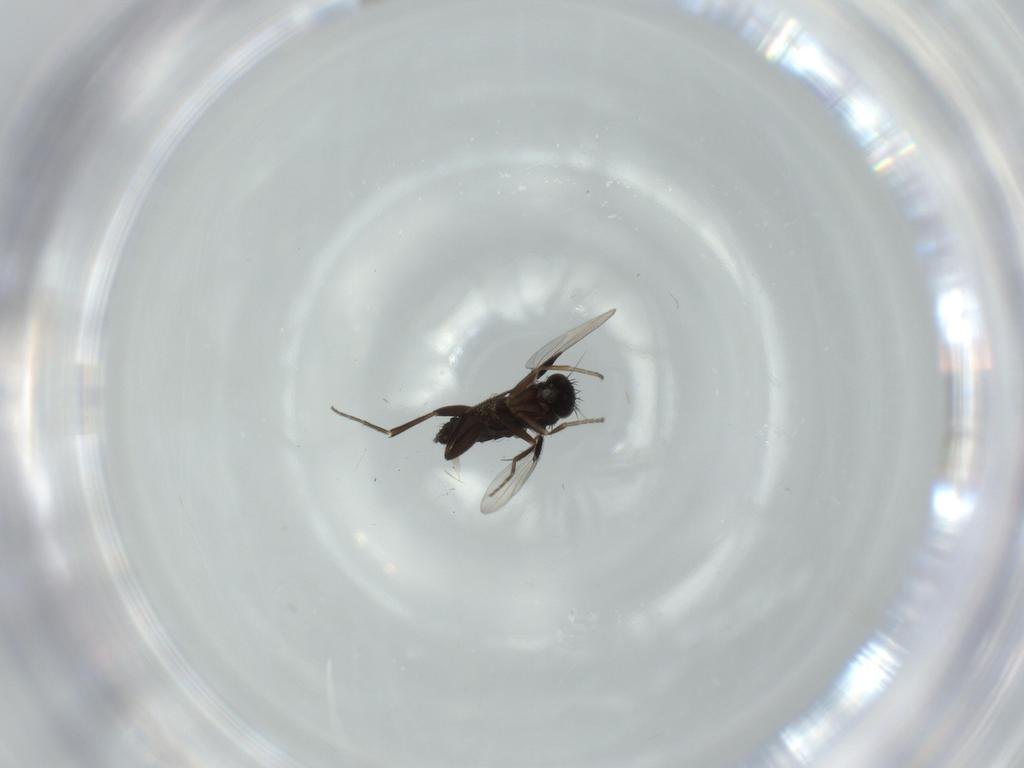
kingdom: Animalia
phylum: Arthropoda
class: Insecta
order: Diptera
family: Phoridae
